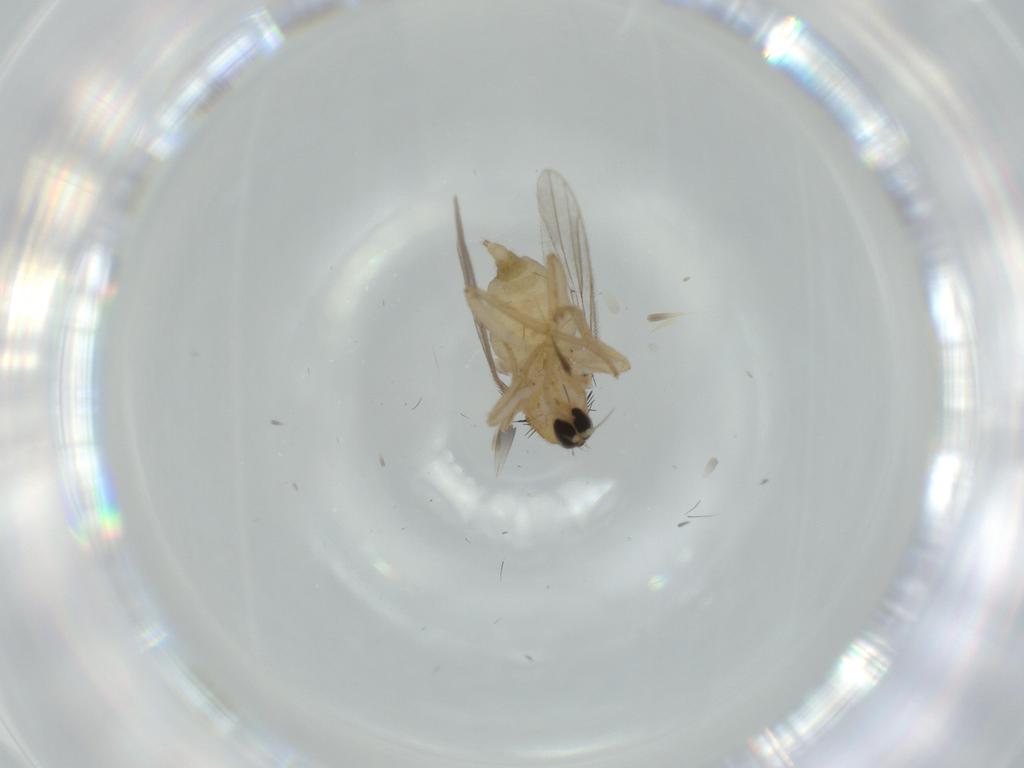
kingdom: Animalia
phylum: Arthropoda
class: Insecta
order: Diptera
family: Hybotidae
